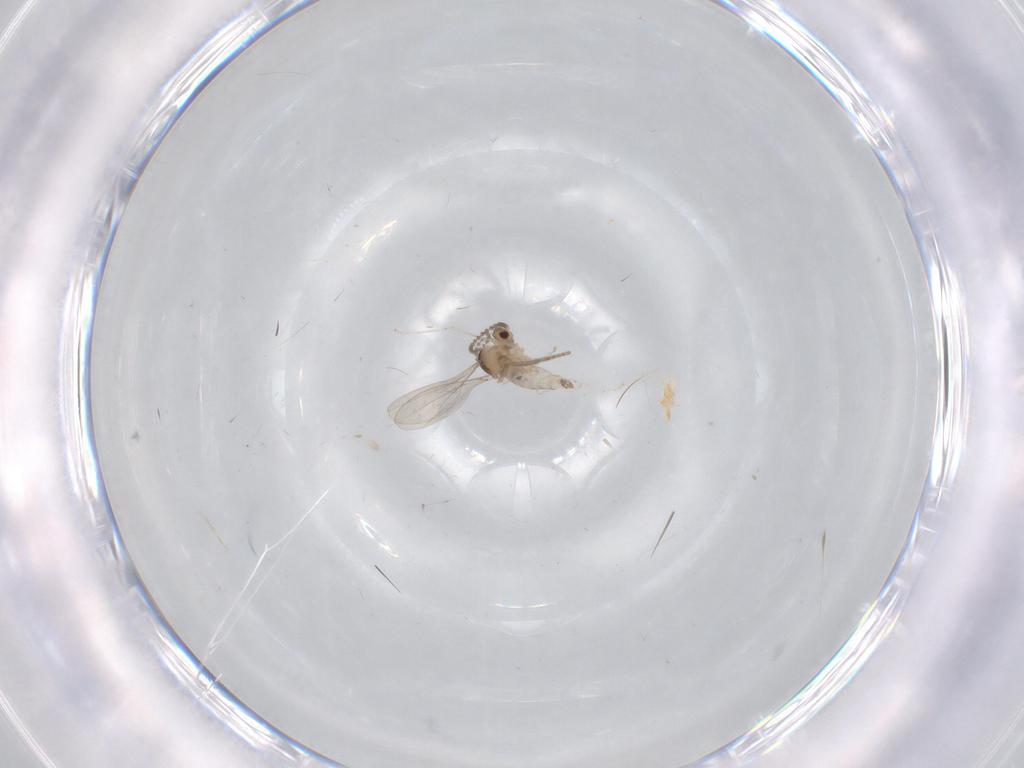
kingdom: Animalia
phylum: Arthropoda
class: Insecta
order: Diptera
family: Cecidomyiidae
